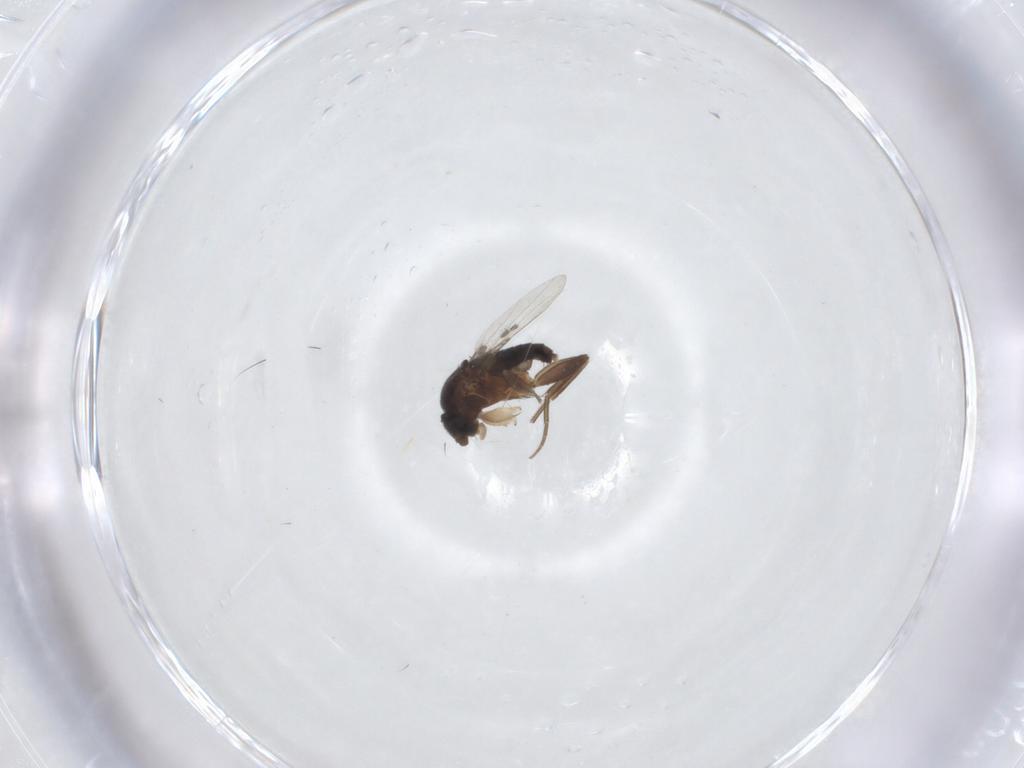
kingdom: Animalia
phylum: Arthropoda
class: Insecta
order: Diptera
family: Phoridae
